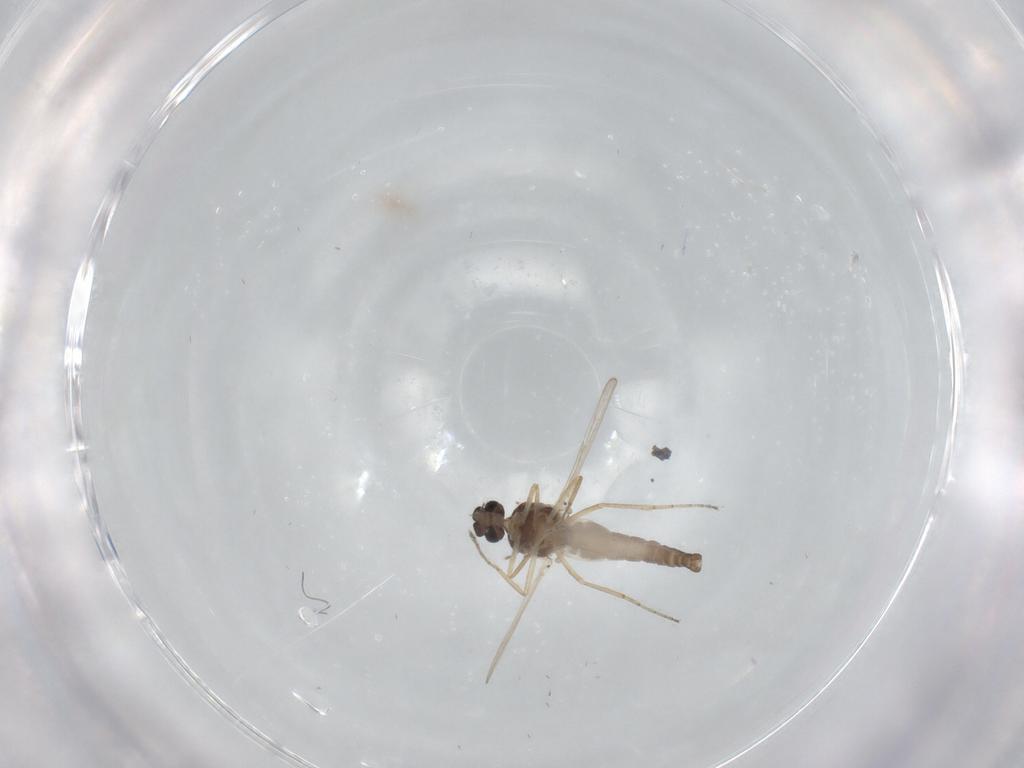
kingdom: Animalia
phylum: Arthropoda
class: Insecta
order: Diptera
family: Ceratopogonidae
